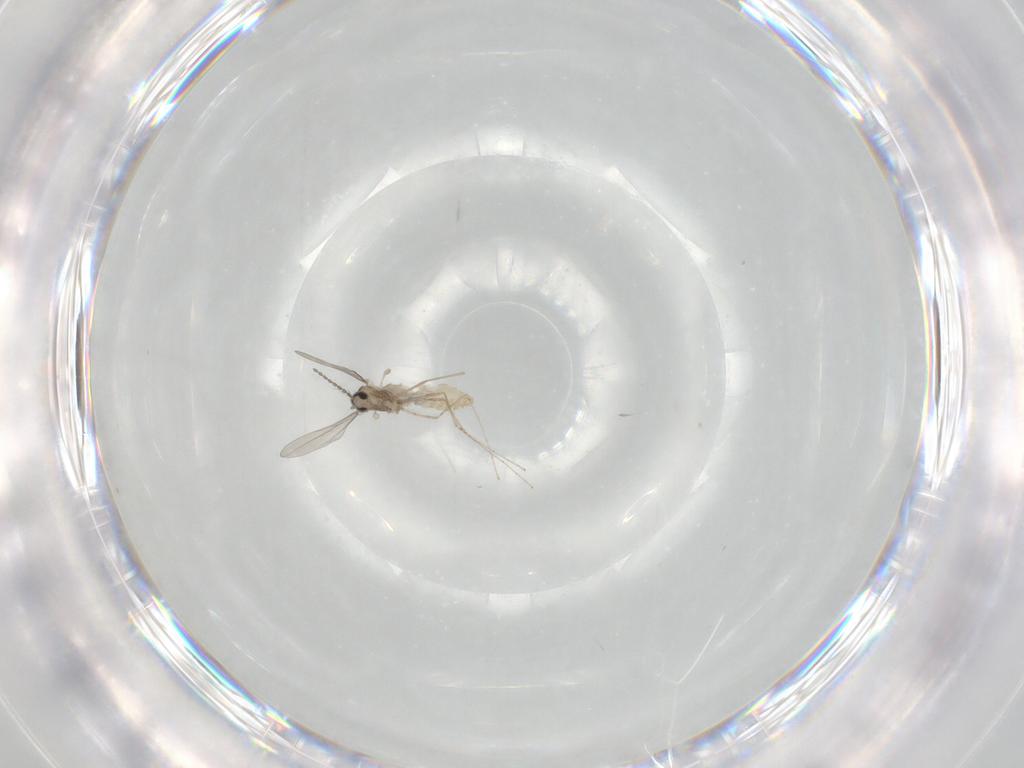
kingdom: Animalia
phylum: Arthropoda
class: Insecta
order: Diptera
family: Cecidomyiidae
